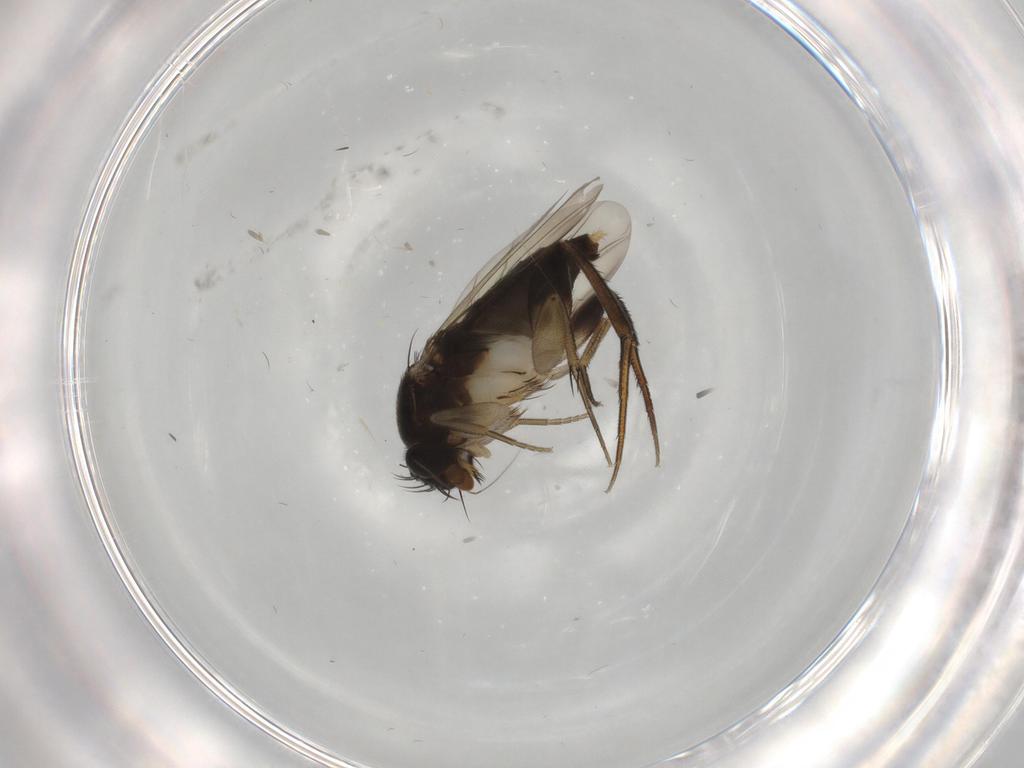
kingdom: Animalia
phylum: Arthropoda
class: Insecta
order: Diptera
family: Phoridae
